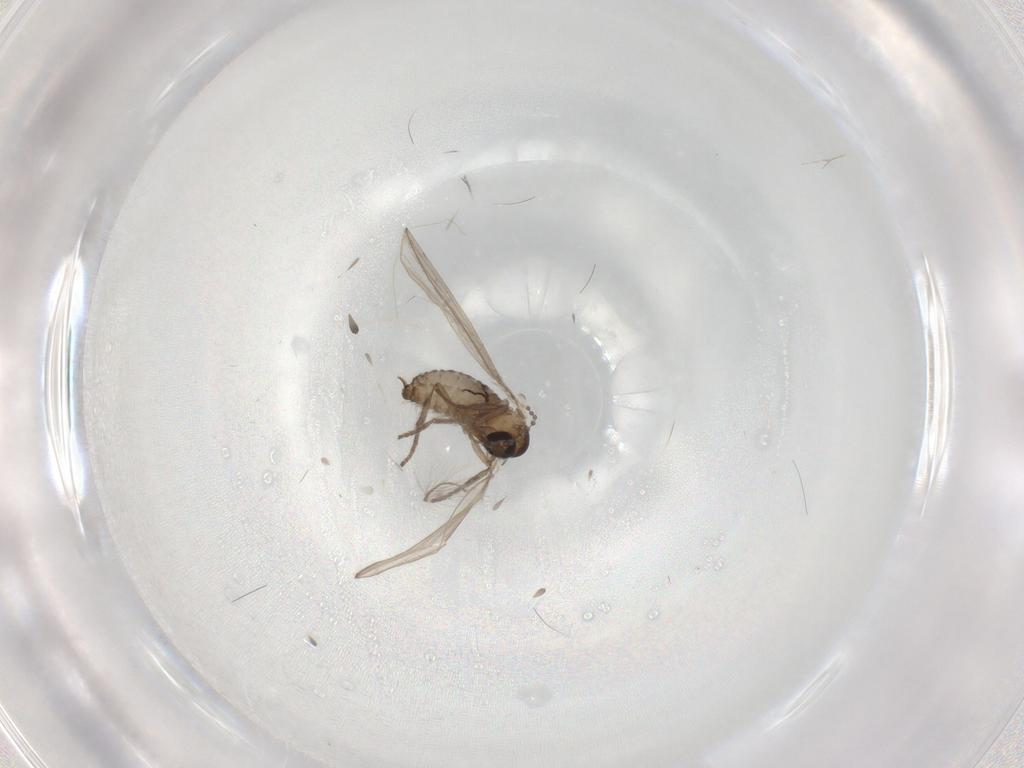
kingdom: Animalia
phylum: Arthropoda
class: Insecta
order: Diptera
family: Psychodidae
